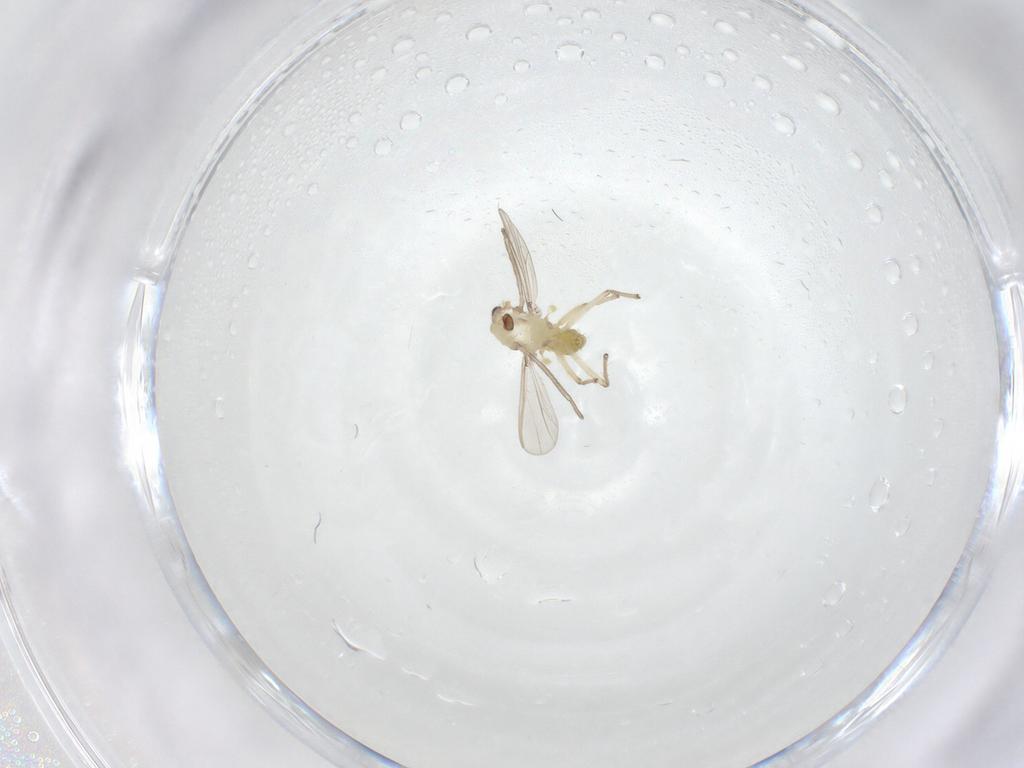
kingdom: Animalia
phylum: Arthropoda
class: Insecta
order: Diptera
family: Chironomidae
